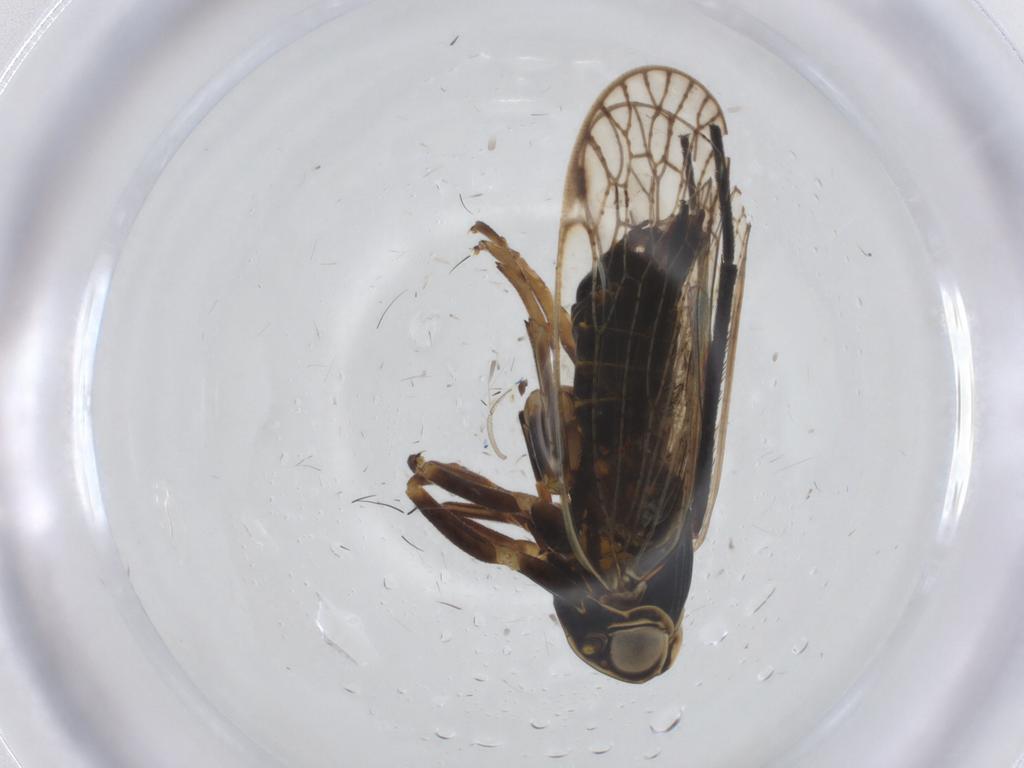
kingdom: Animalia
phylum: Arthropoda
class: Insecta
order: Hemiptera
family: Cixiidae
